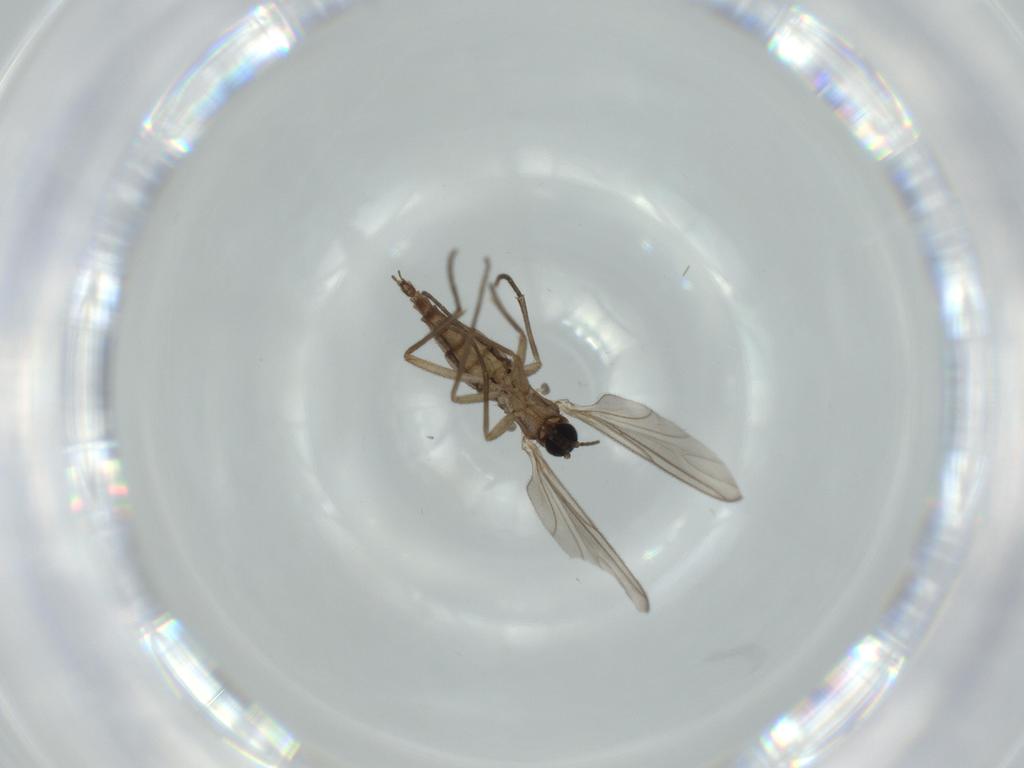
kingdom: Animalia
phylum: Arthropoda
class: Insecta
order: Diptera
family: Sciaridae
